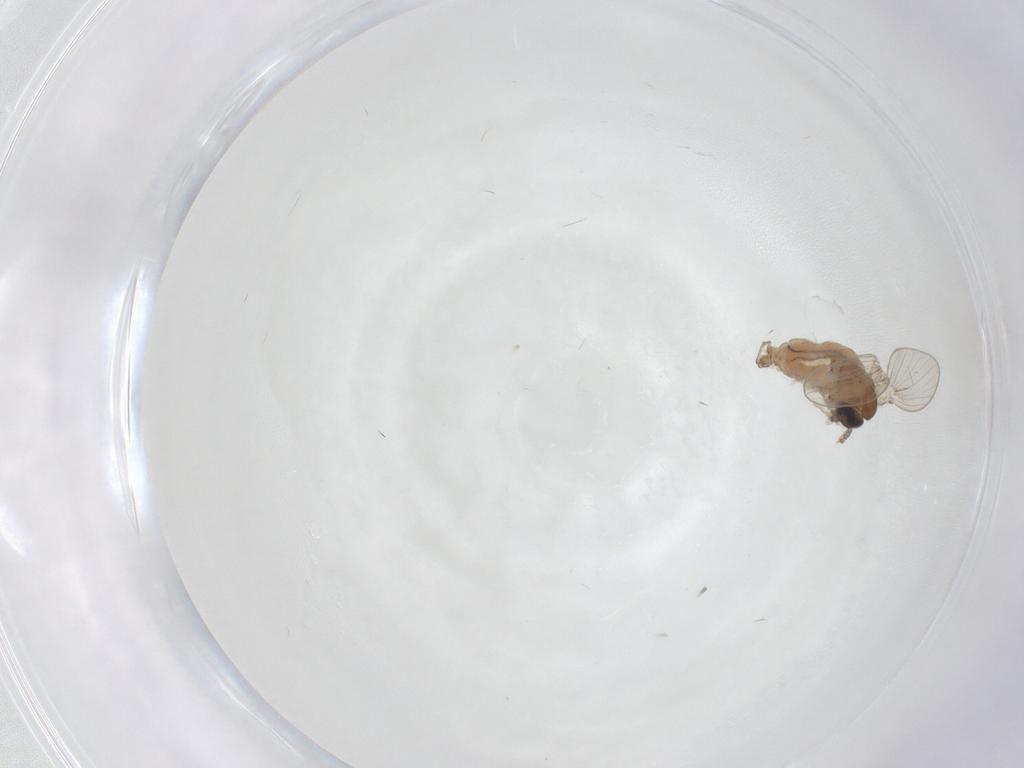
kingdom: Animalia
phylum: Arthropoda
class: Insecta
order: Diptera
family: Psychodidae
